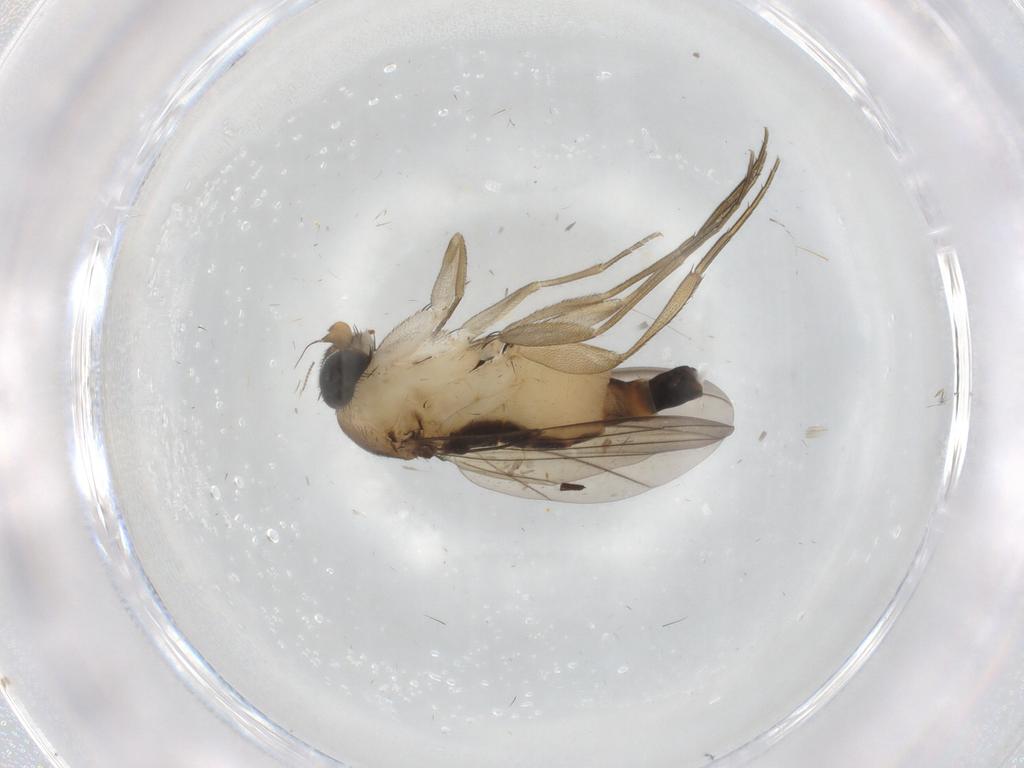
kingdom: Animalia
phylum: Arthropoda
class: Insecta
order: Diptera
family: Phoridae
